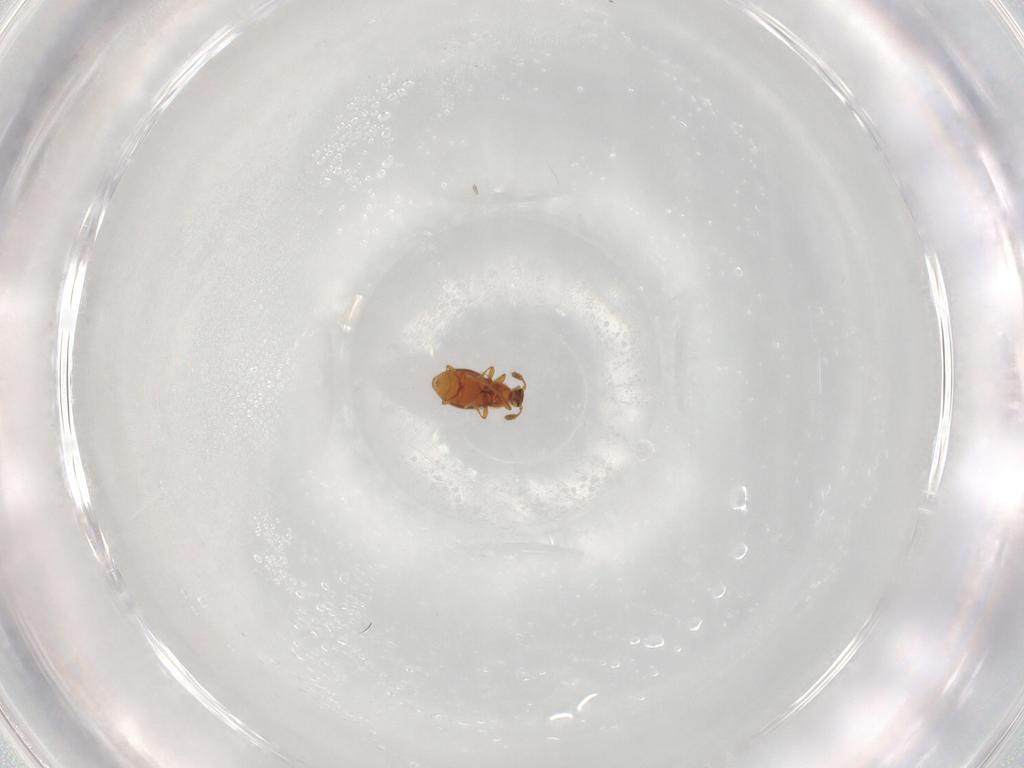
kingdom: Animalia
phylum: Arthropoda
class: Insecta
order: Coleoptera
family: Staphylinidae
